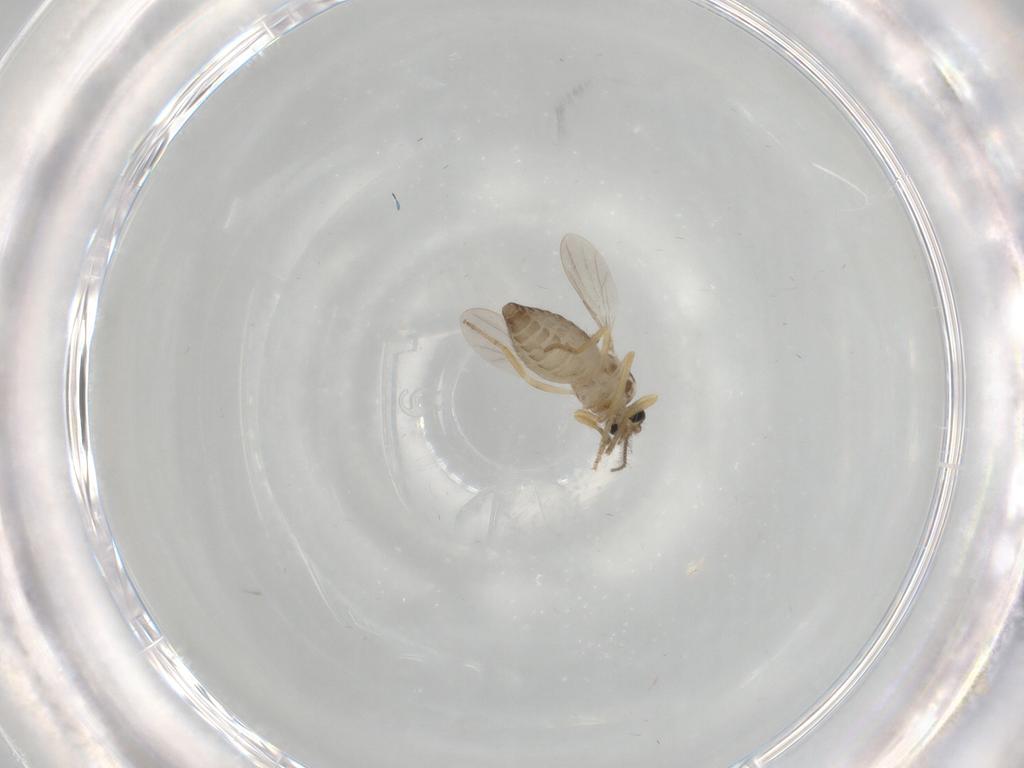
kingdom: Animalia
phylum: Arthropoda
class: Insecta
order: Diptera
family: Ceratopogonidae
